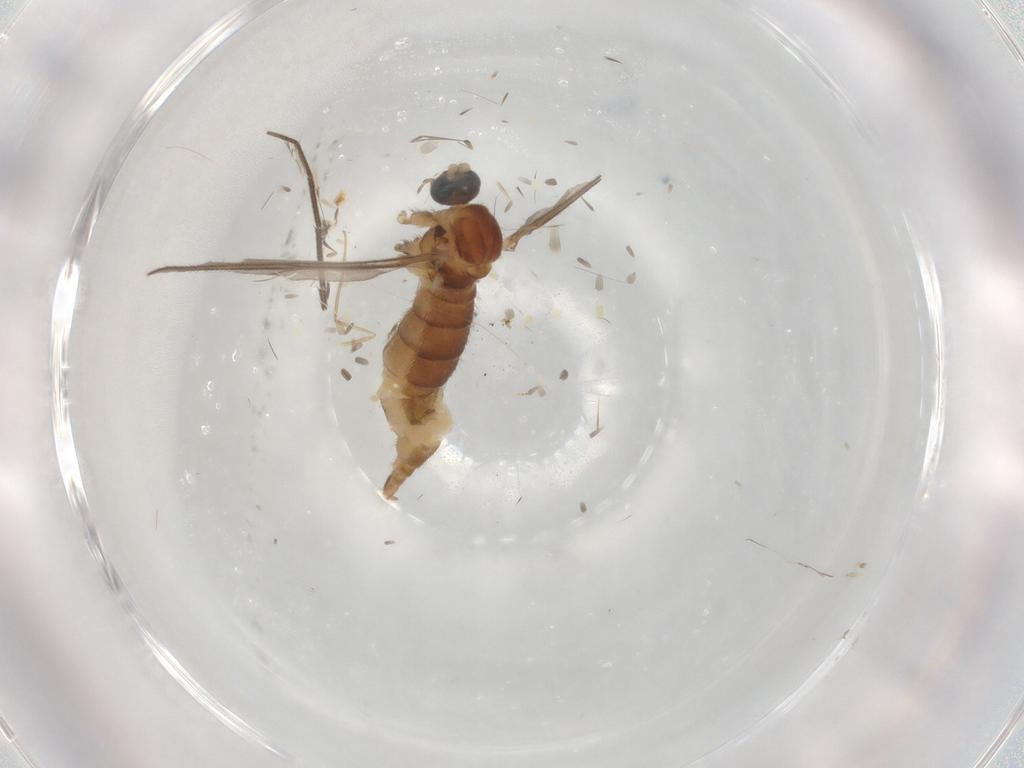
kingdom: Animalia
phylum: Arthropoda
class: Insecta
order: Diptera
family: Sciaridae
